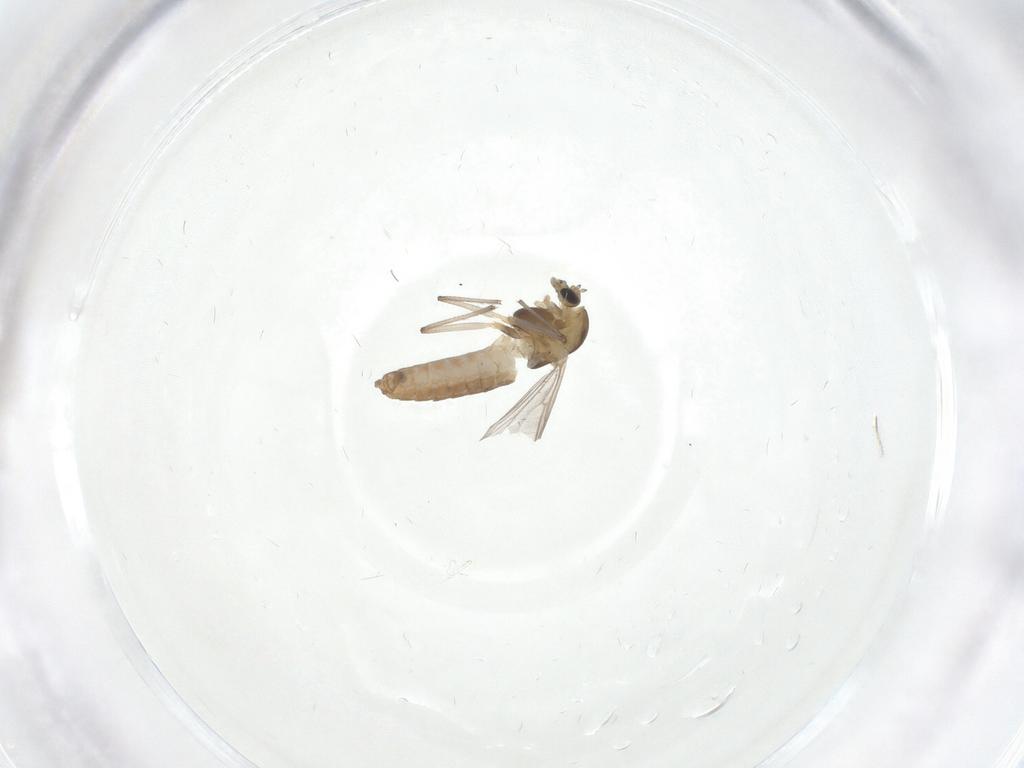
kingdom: Animalia
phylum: Arthropoda
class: Insecta
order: Diptera
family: Chironomidae
